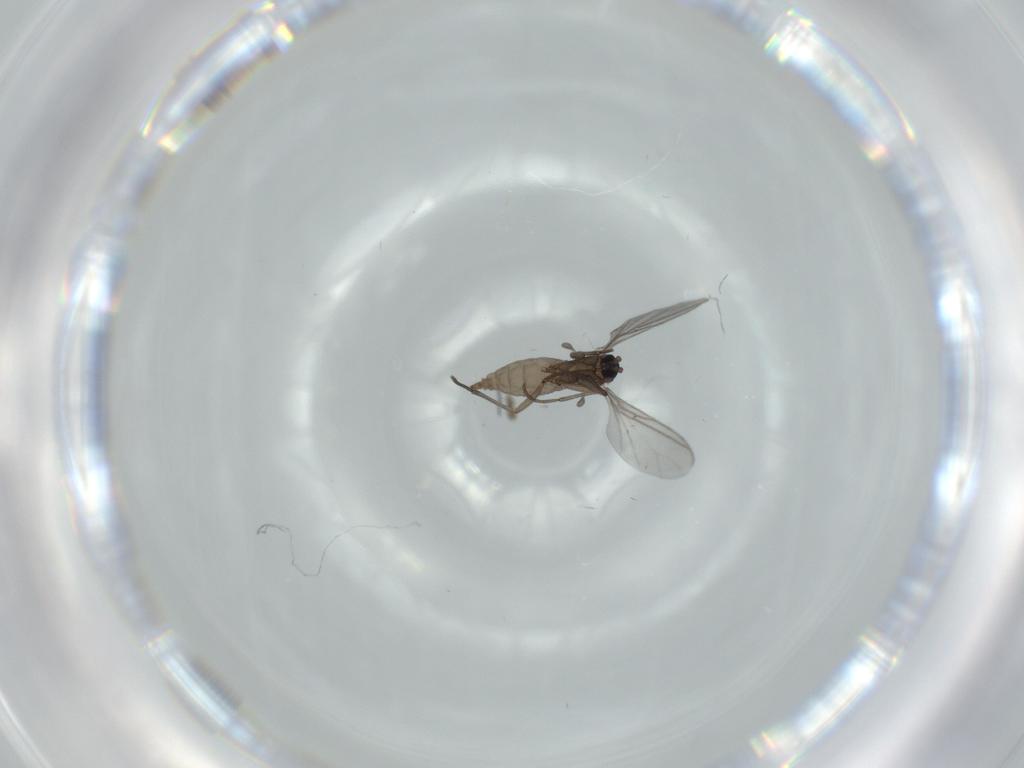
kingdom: Animalia
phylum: Arthropoda
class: Insecta
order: Diptera
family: Sciaridae
